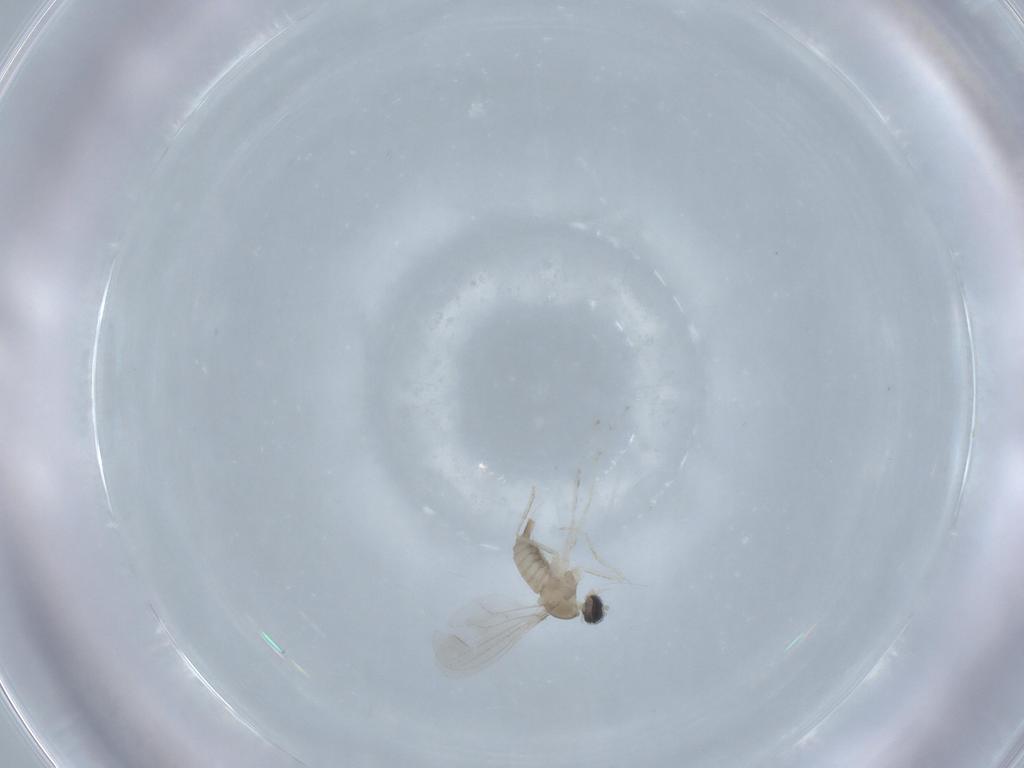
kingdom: Animalia
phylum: Arthropoda
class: Insecta
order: Diptera
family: Cecidomyiidae
